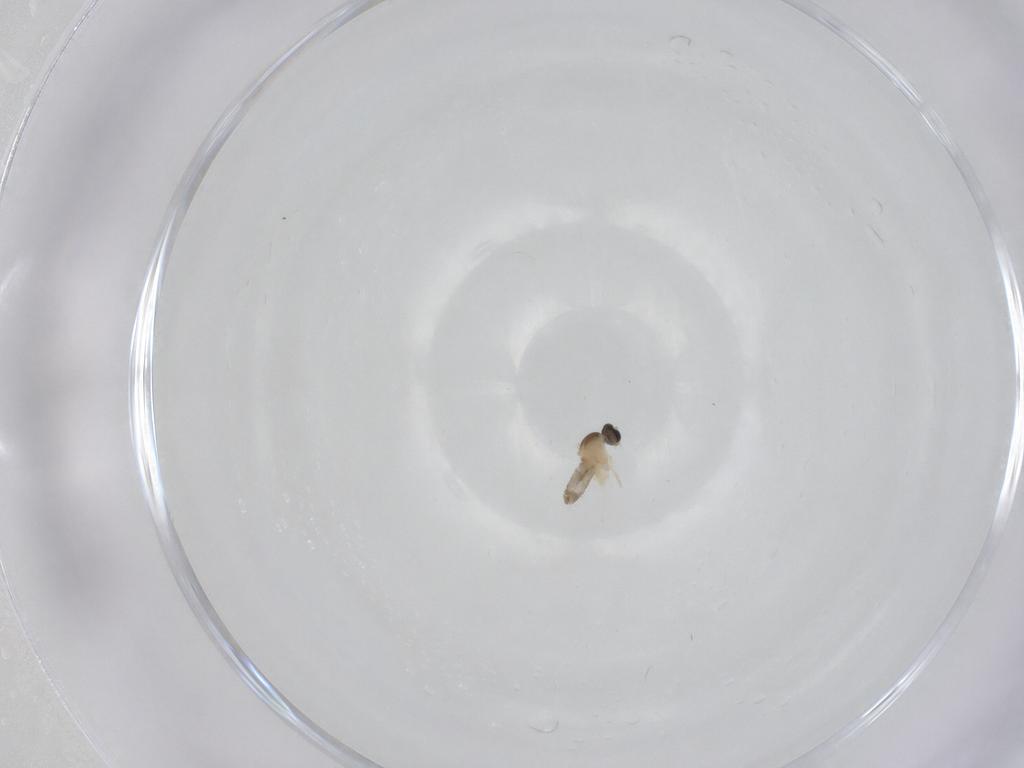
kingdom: Animalia
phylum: Arthropoda
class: Insecta
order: Diptera
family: Cecidomyiidae
